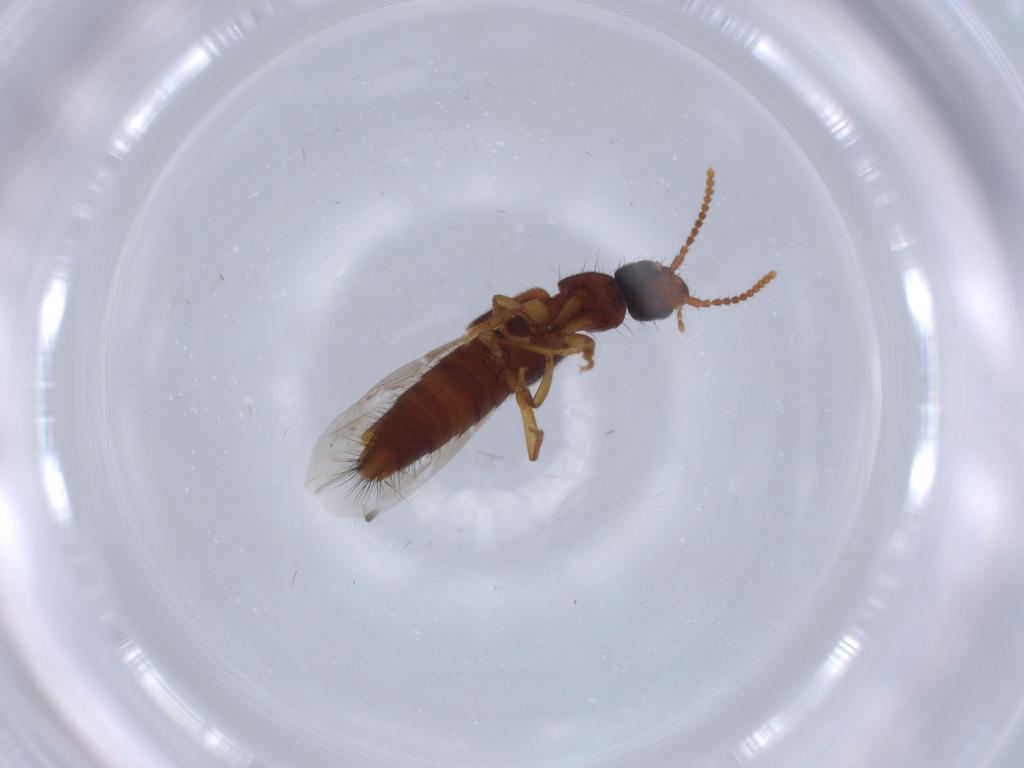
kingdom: Animalia
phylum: Arthropoda
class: Insecta
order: Coleoptera
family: Staphylinidae
